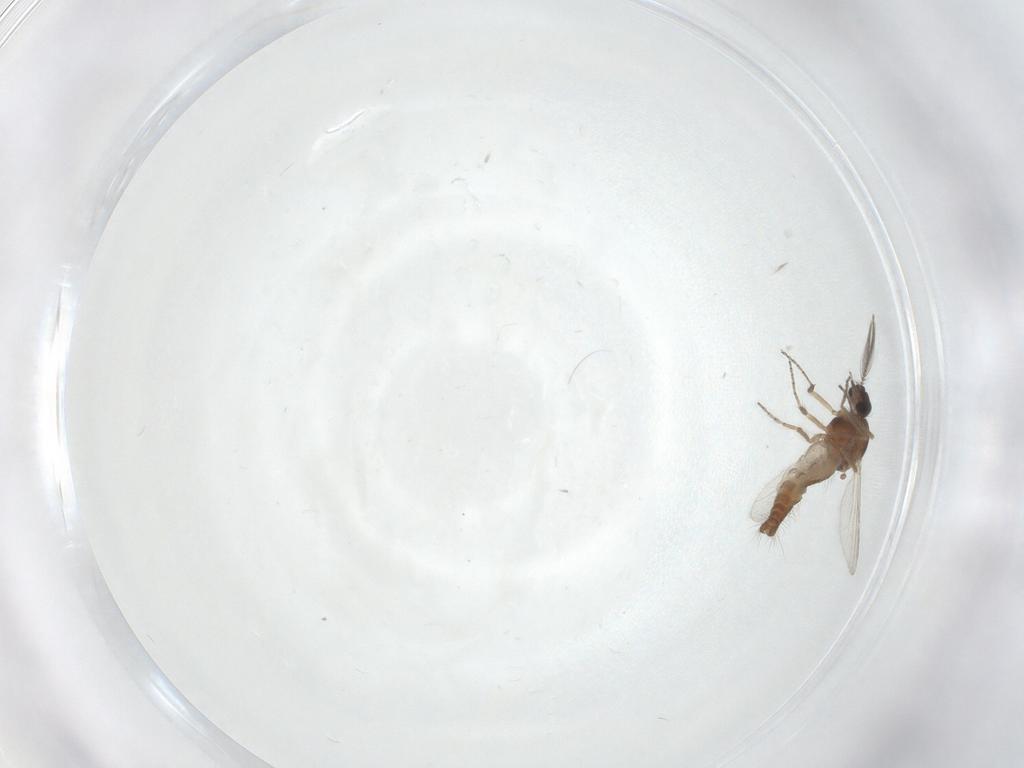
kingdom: Animalia
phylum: Arthropoda
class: Insecta
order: Diptera
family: Ceratopogonidae
